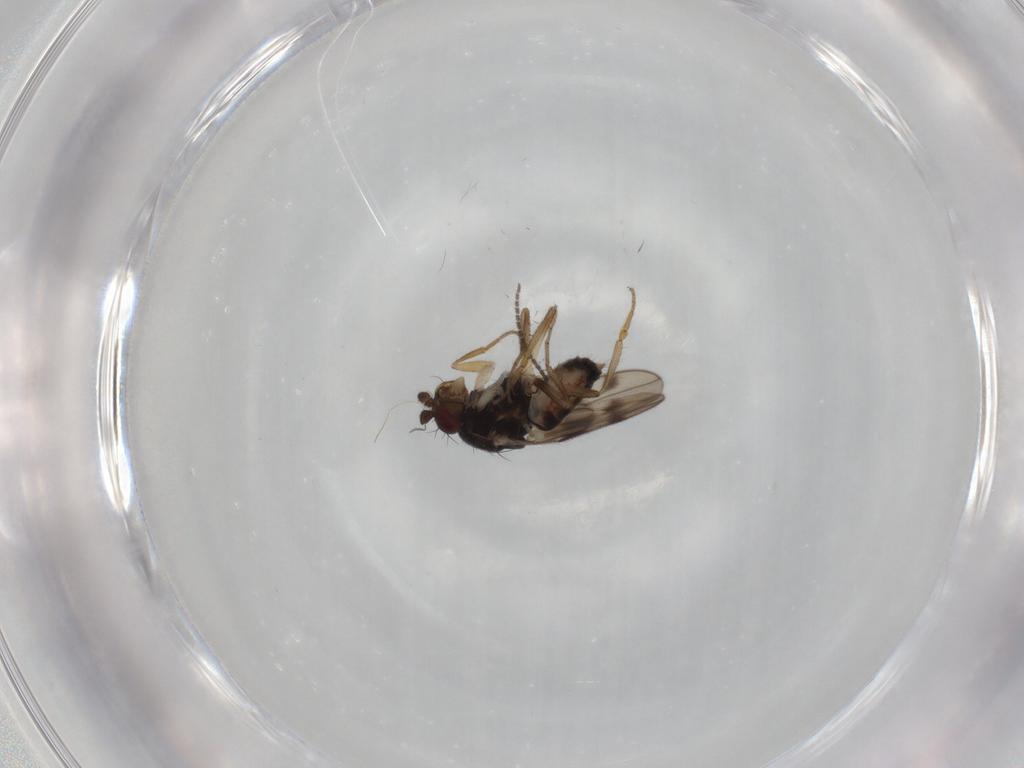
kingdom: Animalia
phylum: Arthropoda
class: Insecta
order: Diptera
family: Sphaeroceridae
